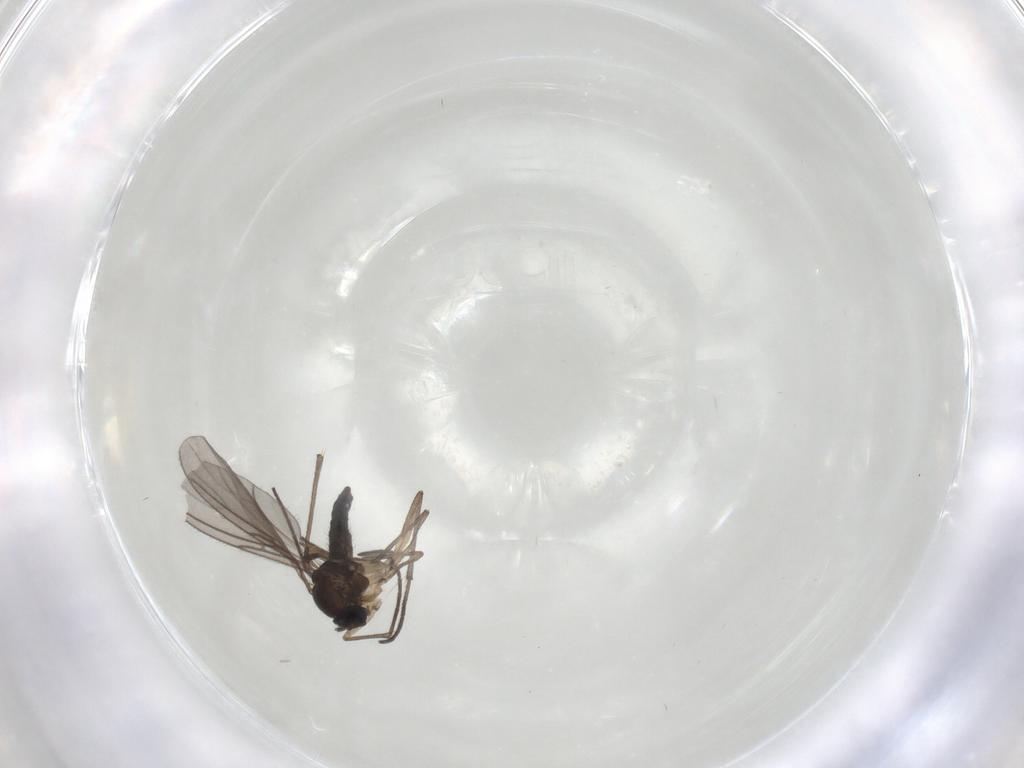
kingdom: Animalia
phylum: Arthropoda
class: Insecta
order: Diptera
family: Sciaridae
